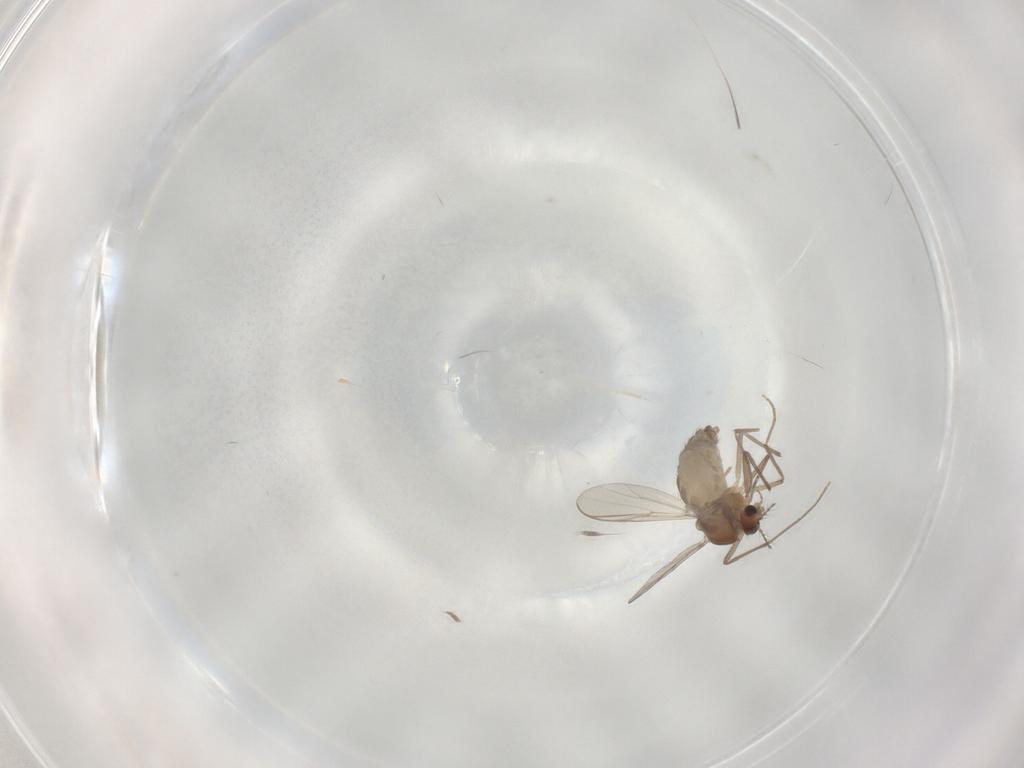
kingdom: Animalia
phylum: Arthropoda
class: Insecta
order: Diptera
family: Chironomidae
